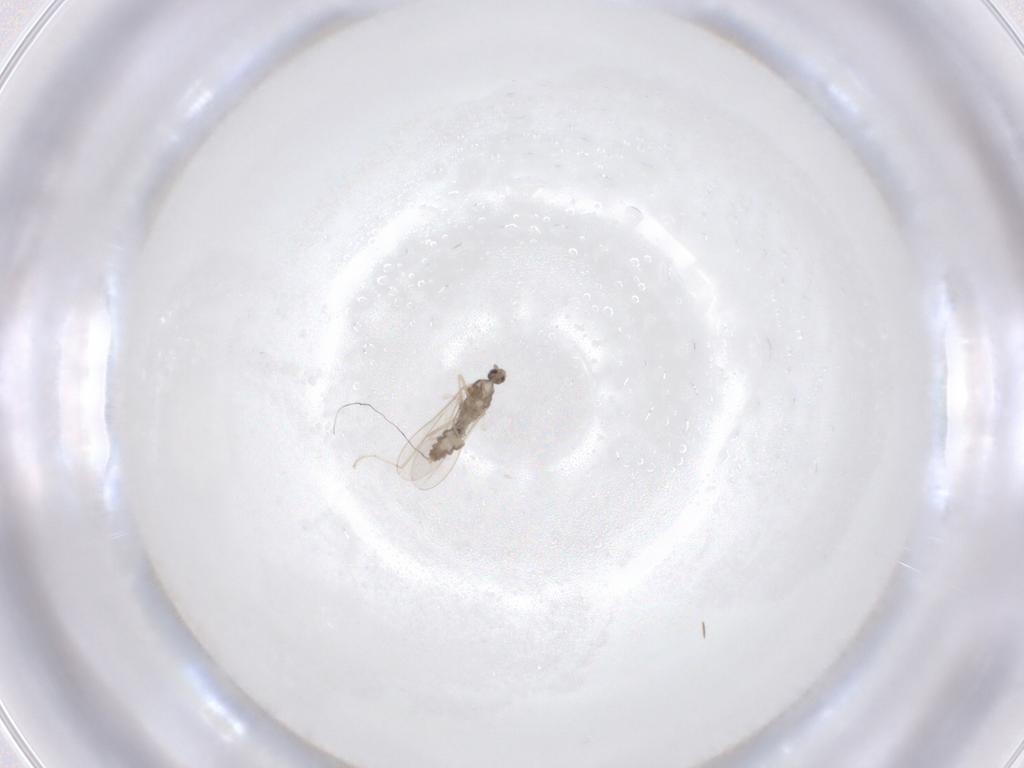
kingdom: Animalia
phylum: Arthropoda
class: Insecta
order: Diptera
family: Cecidomyiidae
